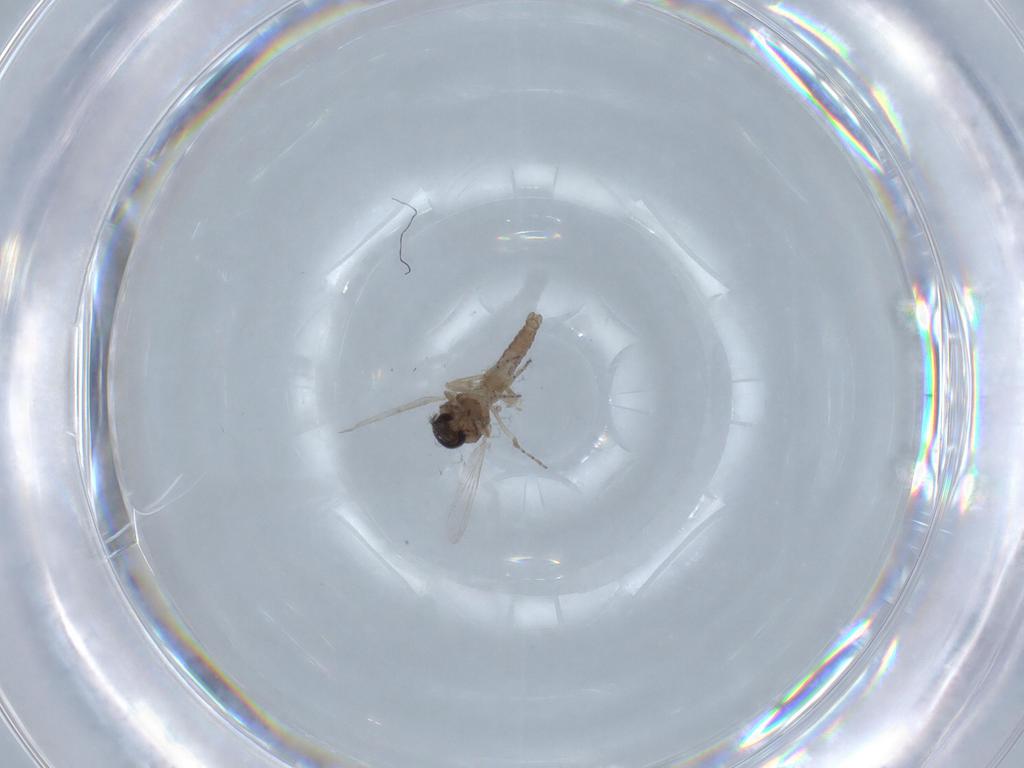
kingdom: Animalia
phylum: Arthropoda
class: Insecta
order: Diptera
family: Ceratopogonidae
